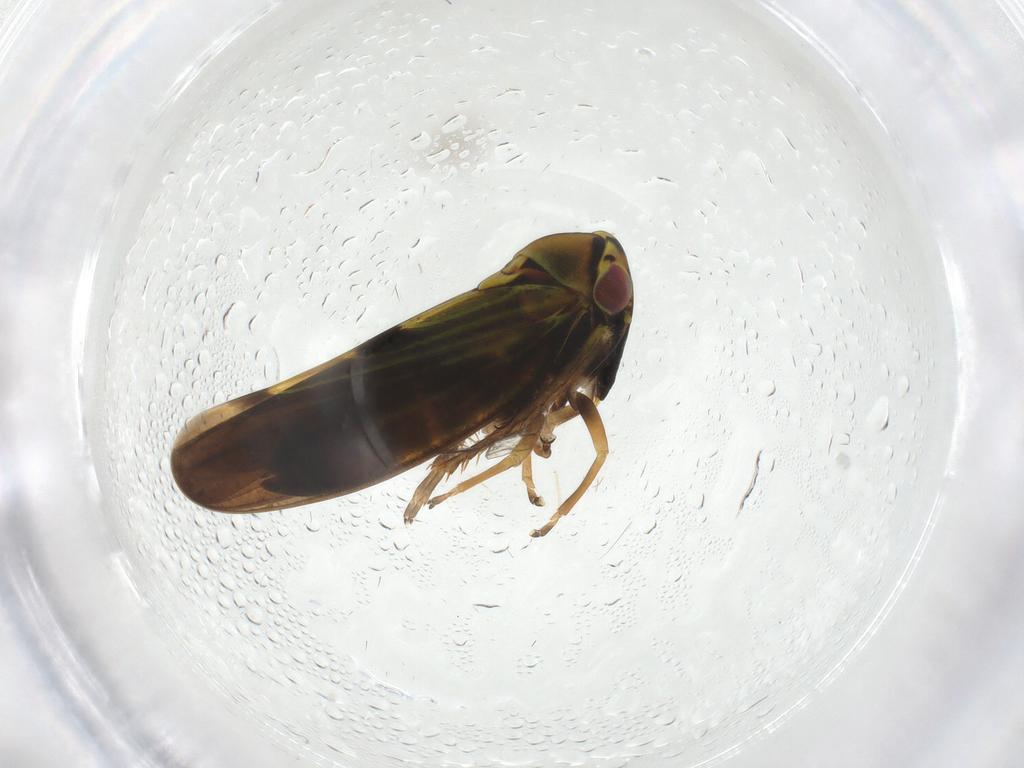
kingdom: Animalia
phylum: Arthropoda
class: Insecta
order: Hemiptera
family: Cicadellidae
